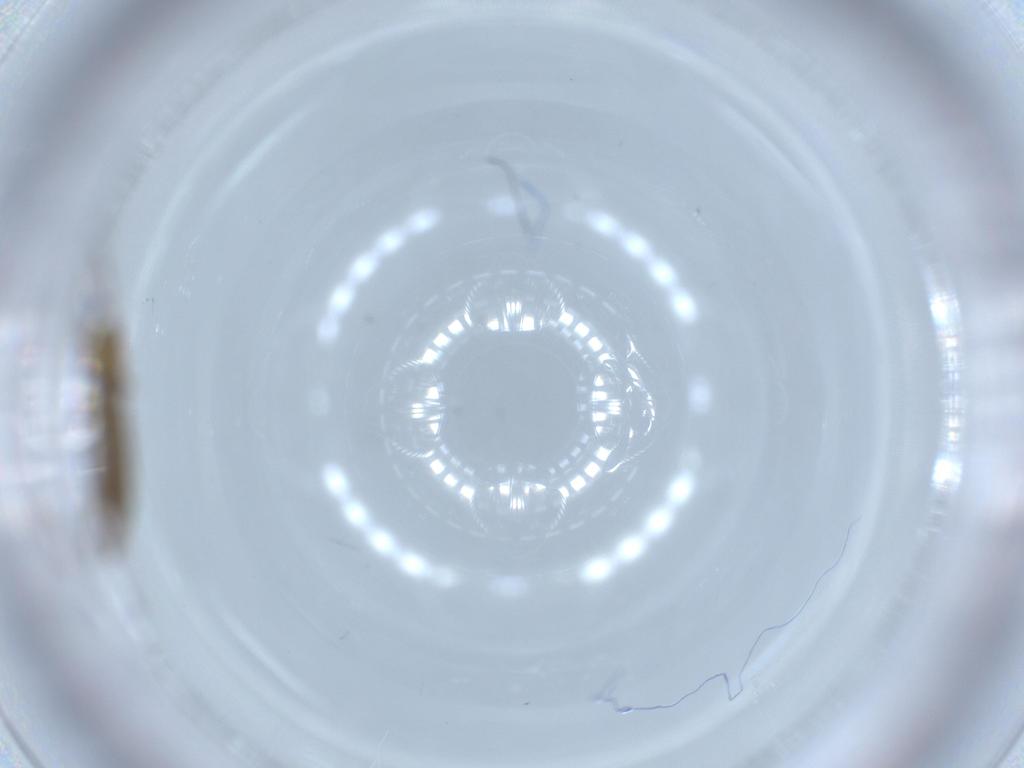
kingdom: Animalia
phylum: Arthropoda
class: Insecta
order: Diptera
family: Sciaridae
